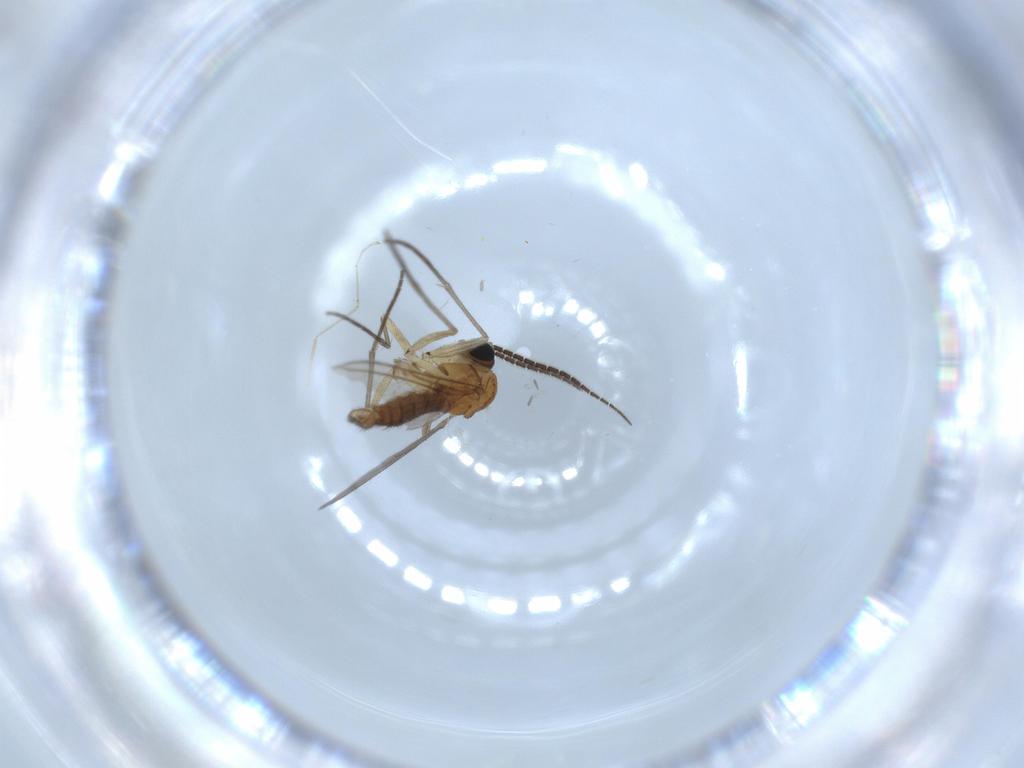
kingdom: Animalia
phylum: Arthropoda
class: Insecta
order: Diptera
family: Sciaridae
